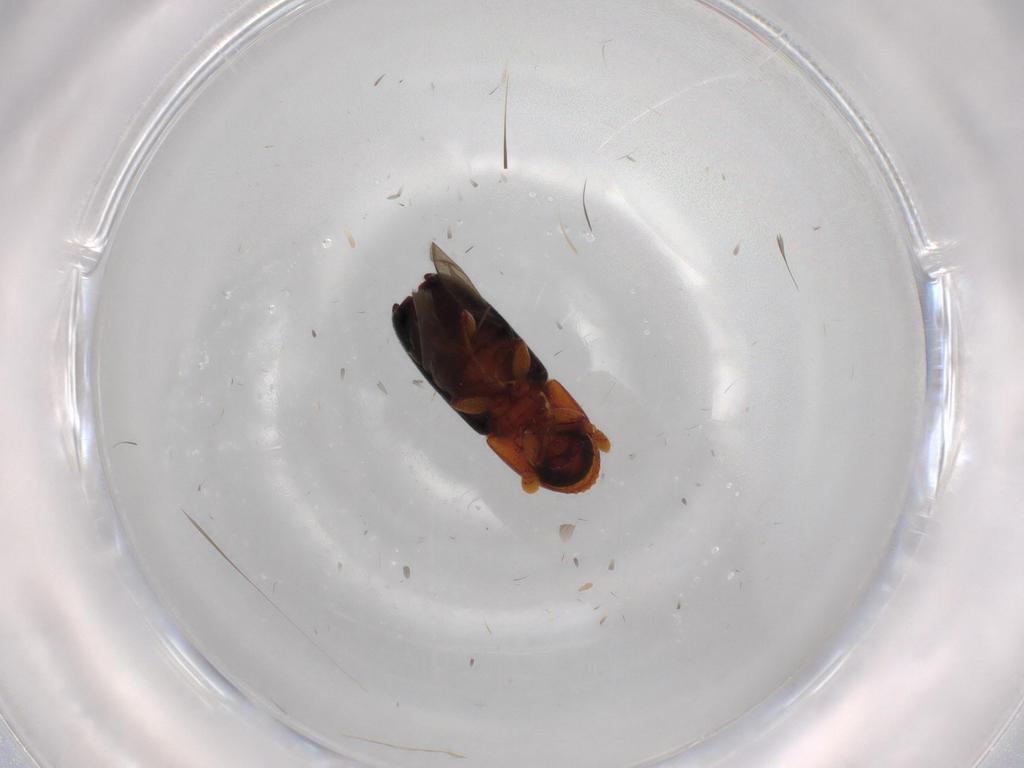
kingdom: Animalia
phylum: Arthropoda
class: Insecta
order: Coleoptera
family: Curculionidae
